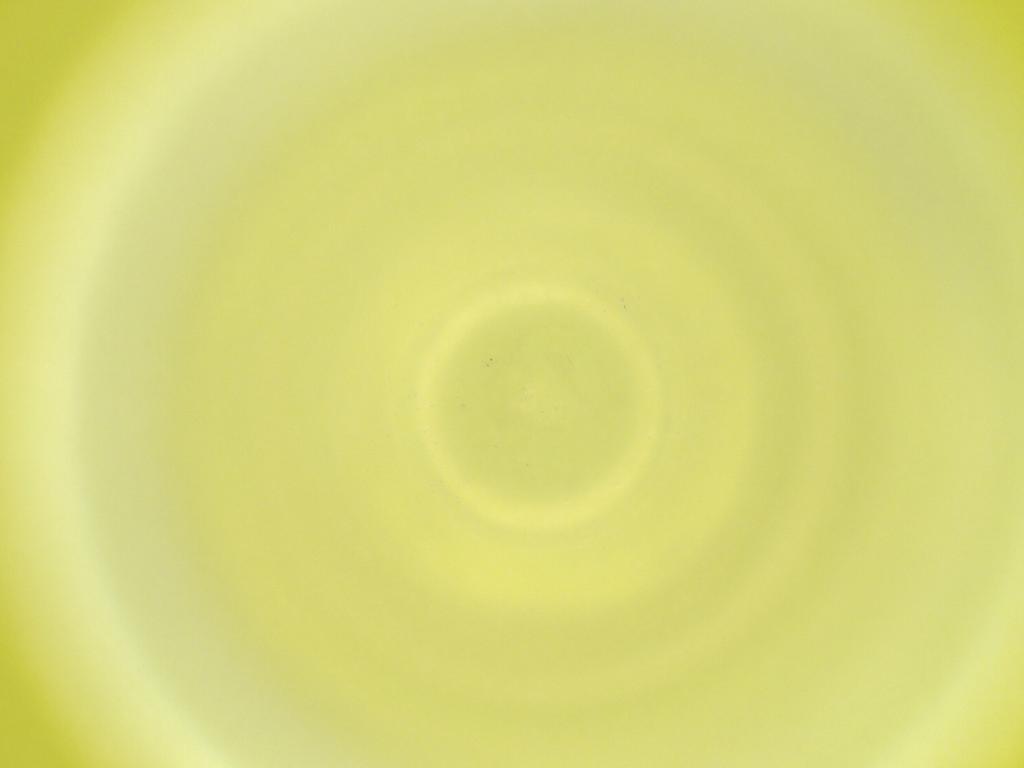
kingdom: Animalia
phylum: Arthropoda
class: Insecta
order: Diptera
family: Cecidomyiidae
